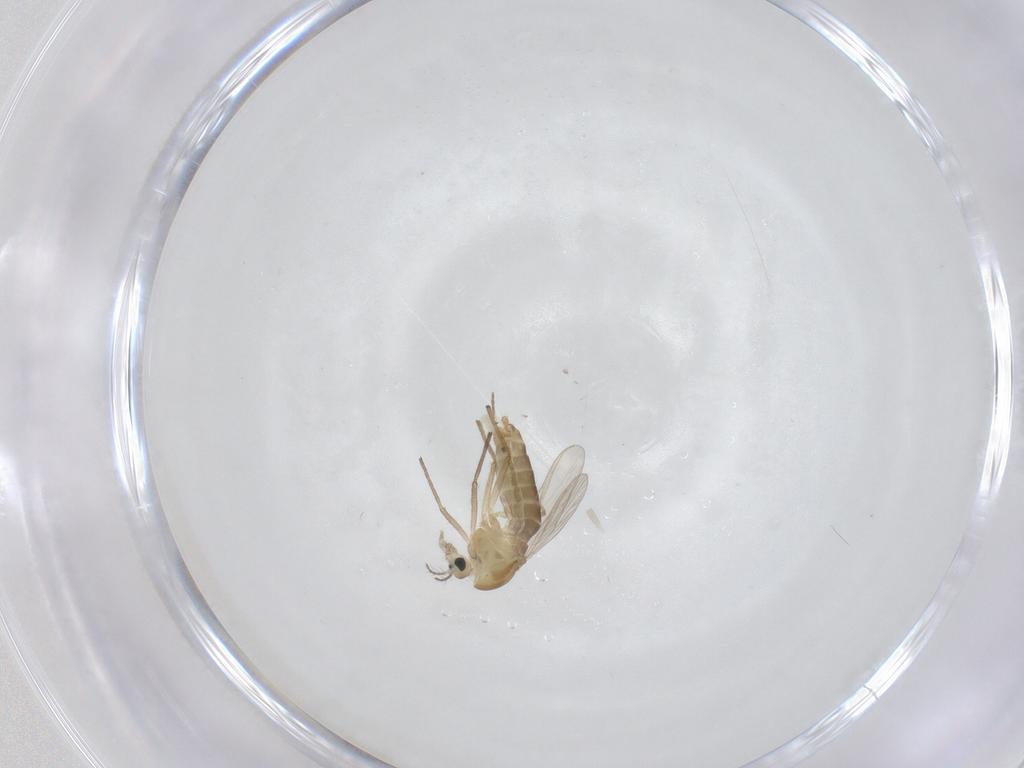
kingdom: Animalia
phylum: Arthropoda
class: Insecta
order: Diptera
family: Chironomidae
